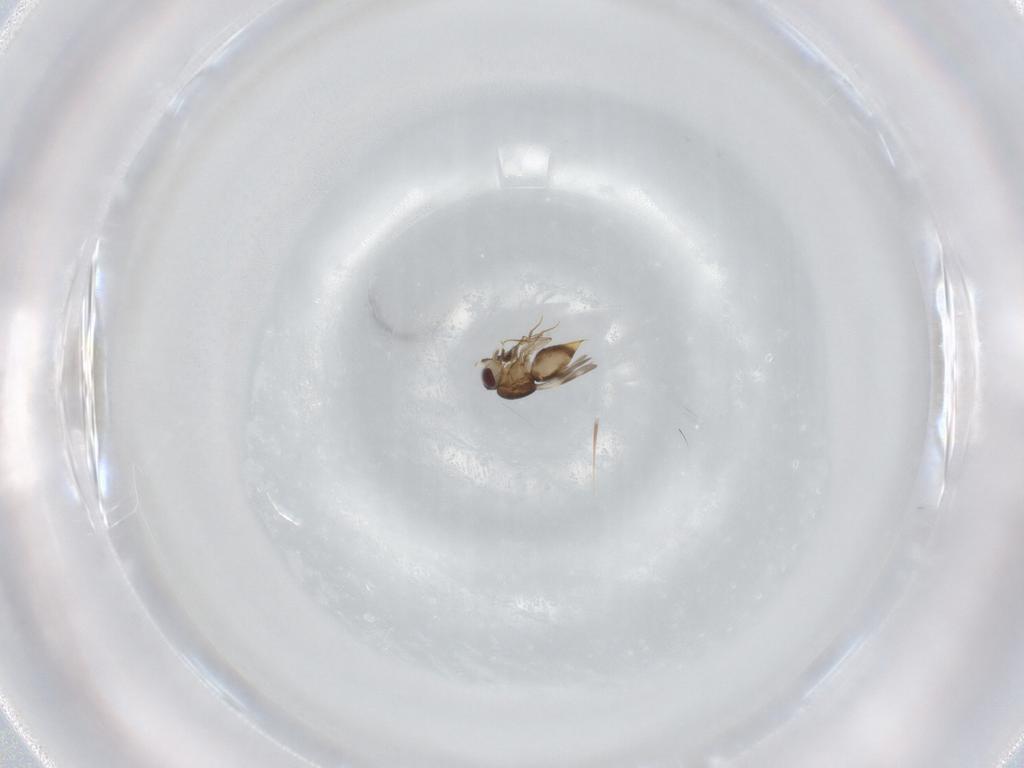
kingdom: Animalia
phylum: Arthropoda
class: Insecta
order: Hymenoptera
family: Ceraphronidae
